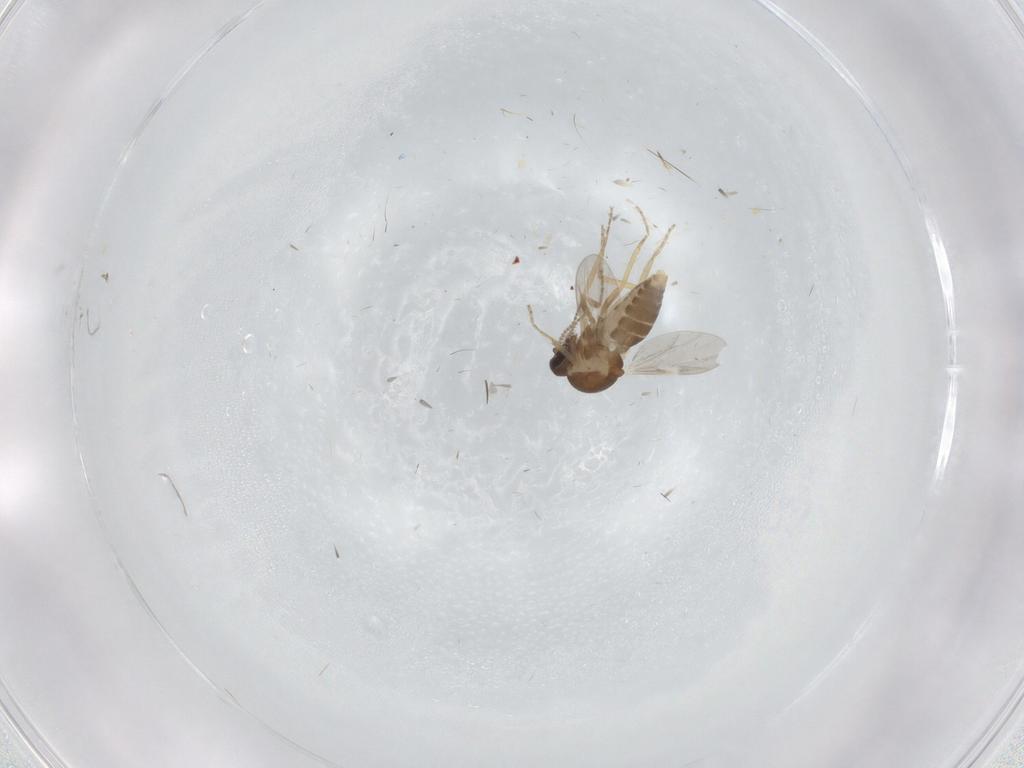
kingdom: Animalia
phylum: Arthropoda
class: Insecta
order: Diptera
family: Ceratopogonidae
